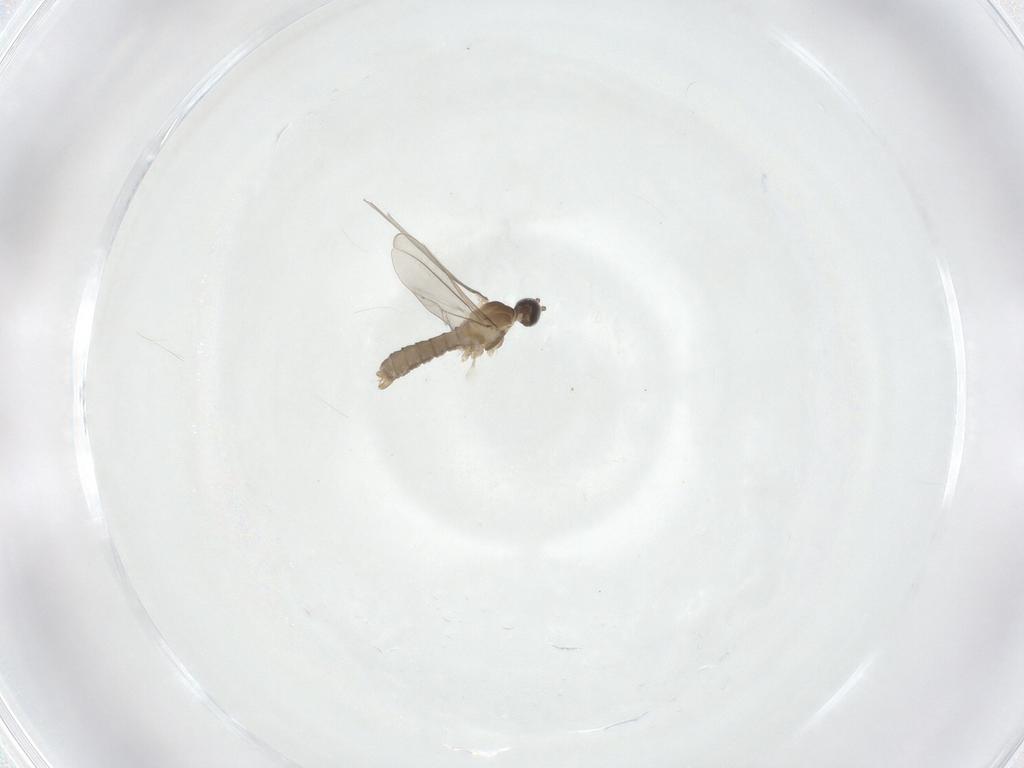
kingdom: Animalia
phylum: Arthropoda
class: Insecta
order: Diptera
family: Cecidomyiidae
